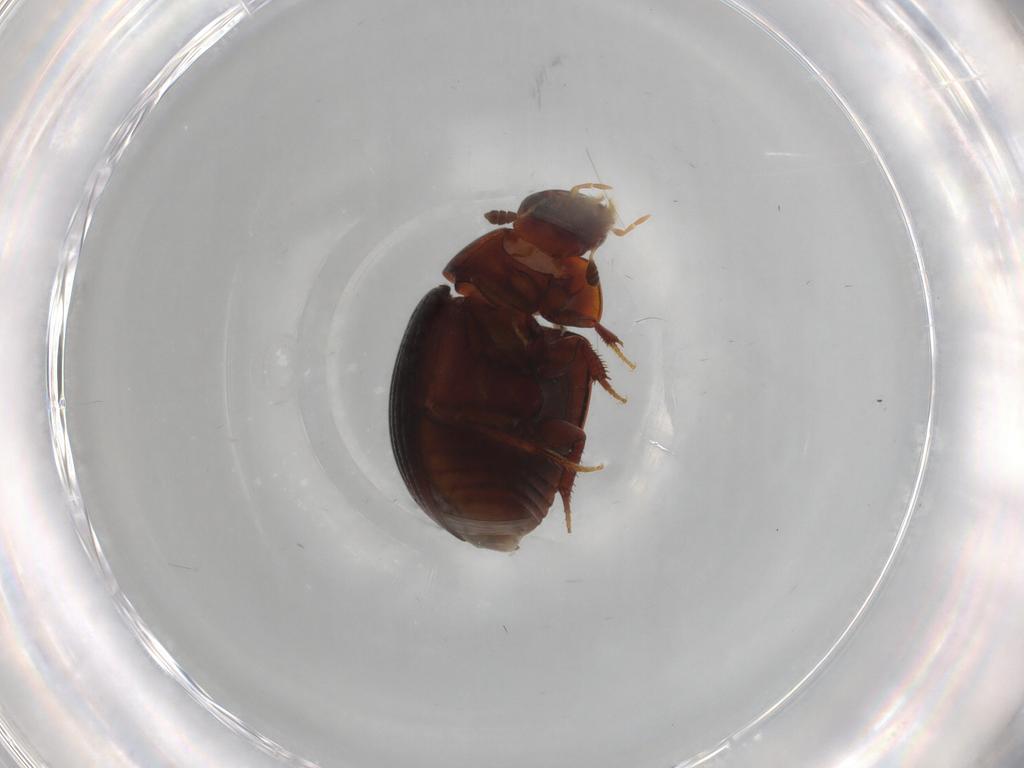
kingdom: Animalia
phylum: Arthropoda
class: Insecta
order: Coleoptera
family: Hydrophilidae
